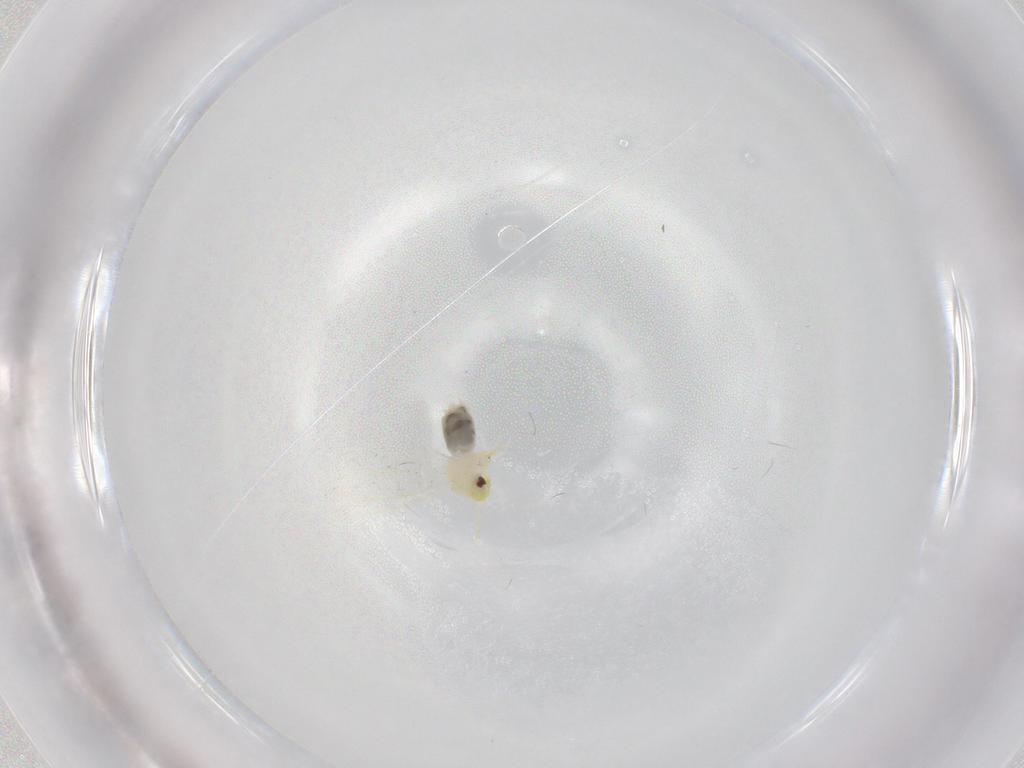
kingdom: Animalia
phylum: Arthropoda
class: Insecta
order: Hemiptera
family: Aleyrodidae
